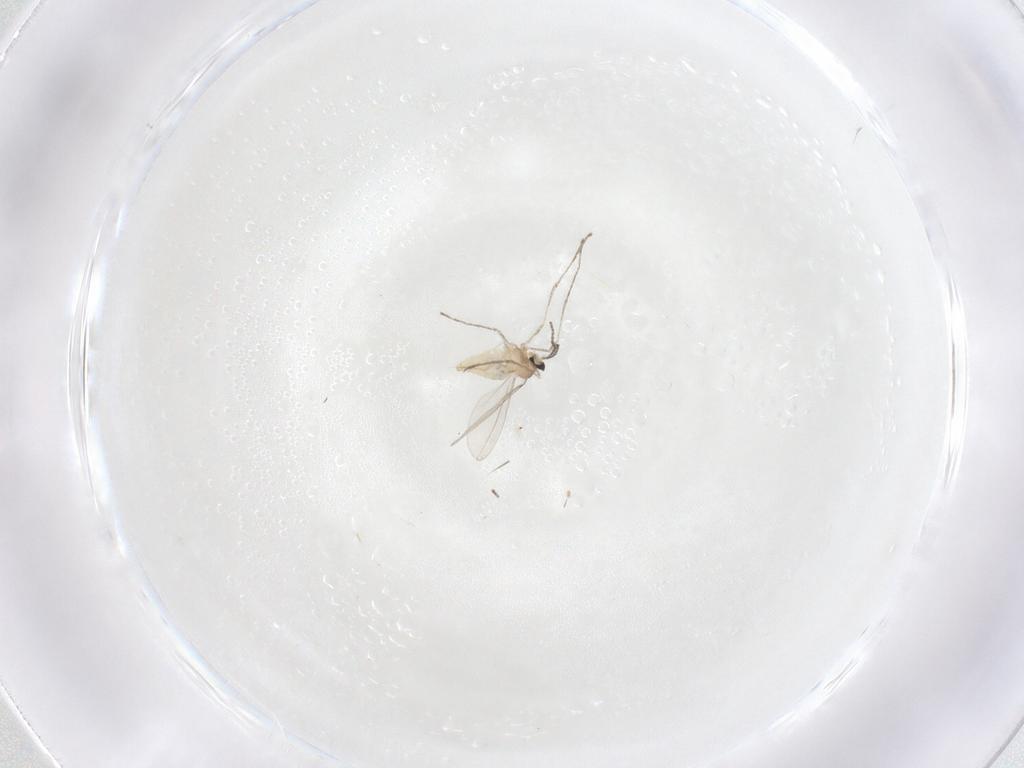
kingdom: Animalia
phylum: Arthropoda
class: Insecta
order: Diptera
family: Cecidomyiidae
